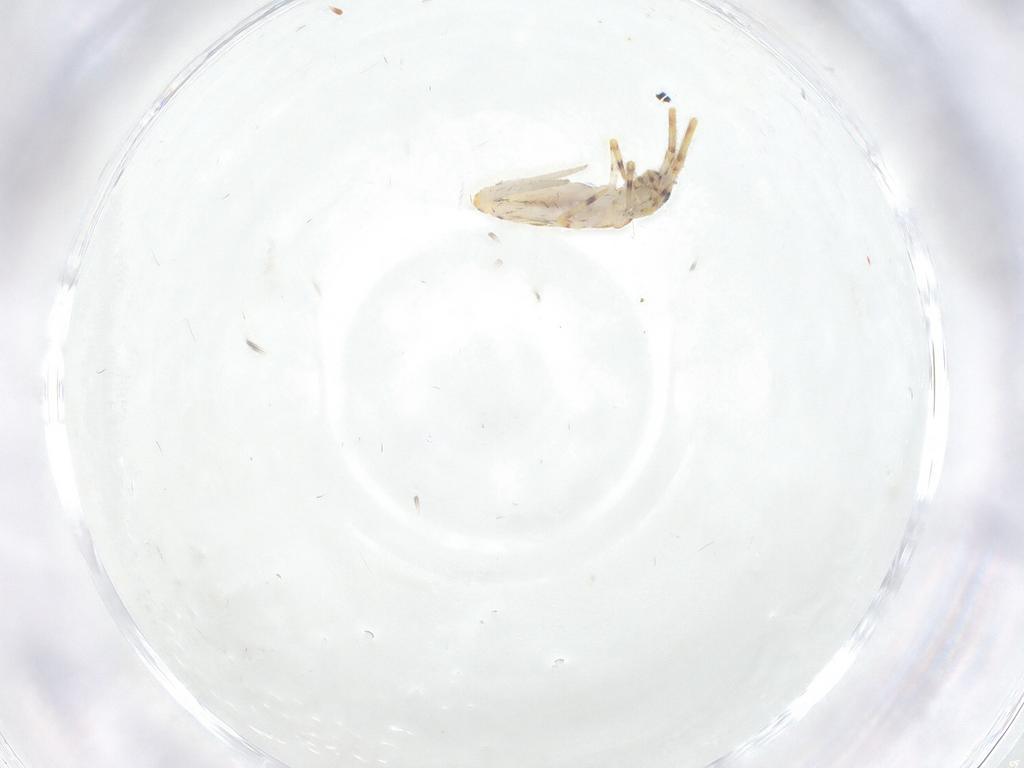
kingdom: Animalia
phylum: Arthropoda
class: Collembola
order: Entomobryomorpha
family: Entomobryidae
